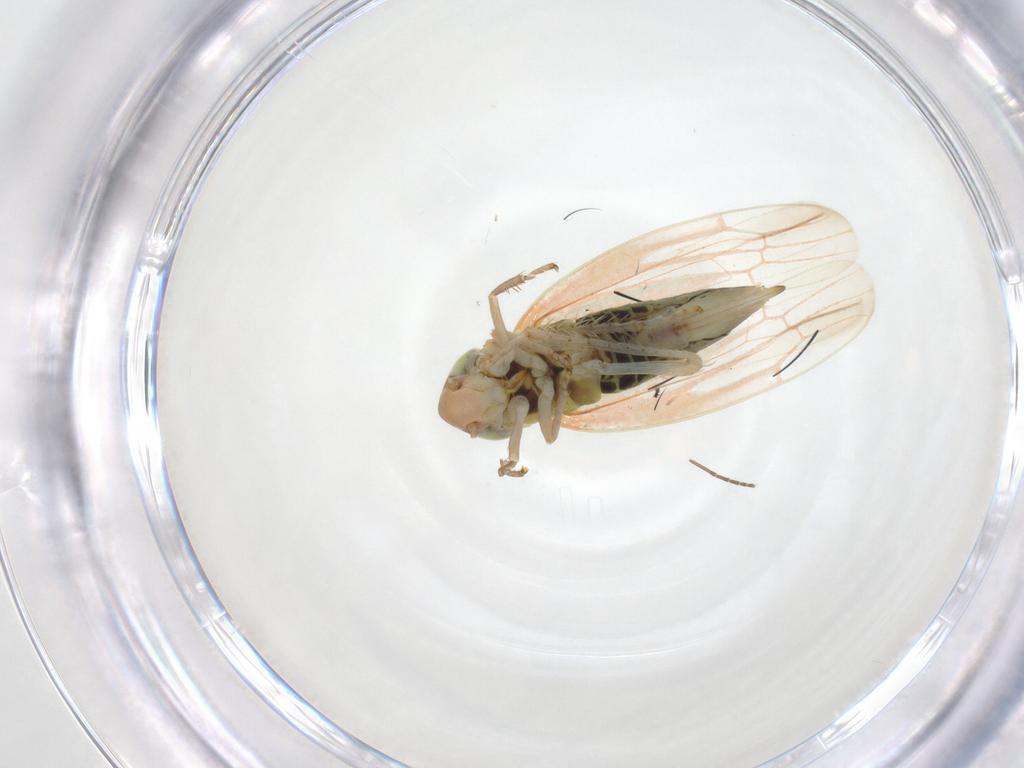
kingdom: Animalia
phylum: Arthropoda
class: Insecta
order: Hemiptera
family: Cicadellidae
